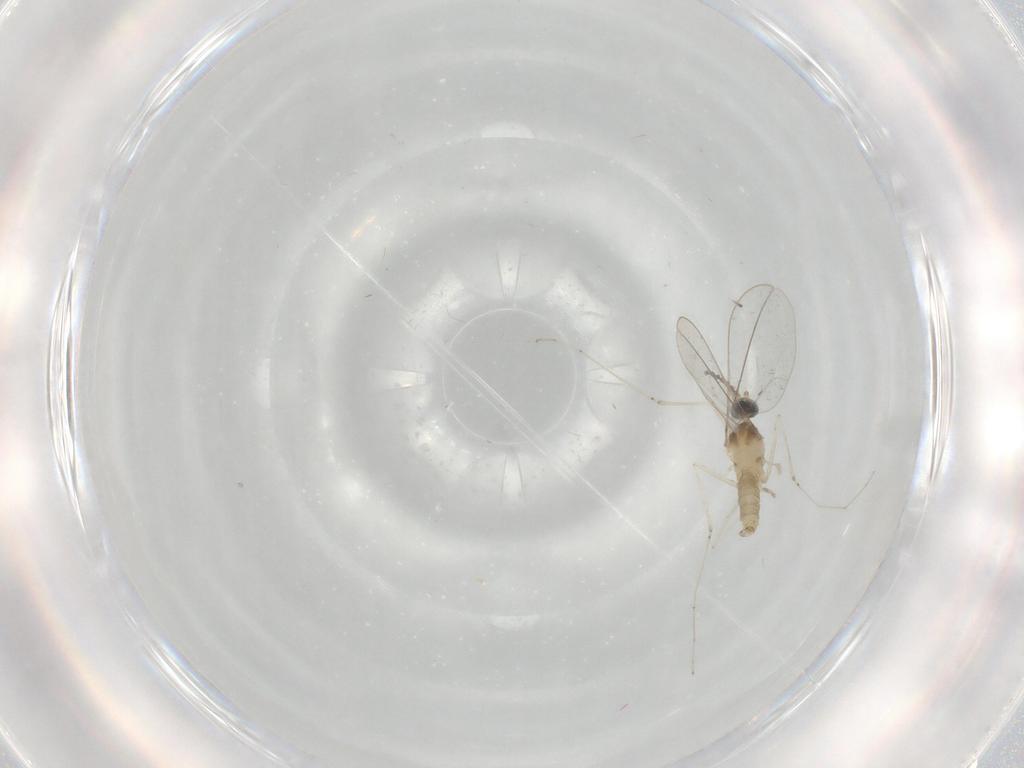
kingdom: Animalia
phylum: Arthropoda
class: Insecta
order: Diptera
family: Cecidomyiidae
